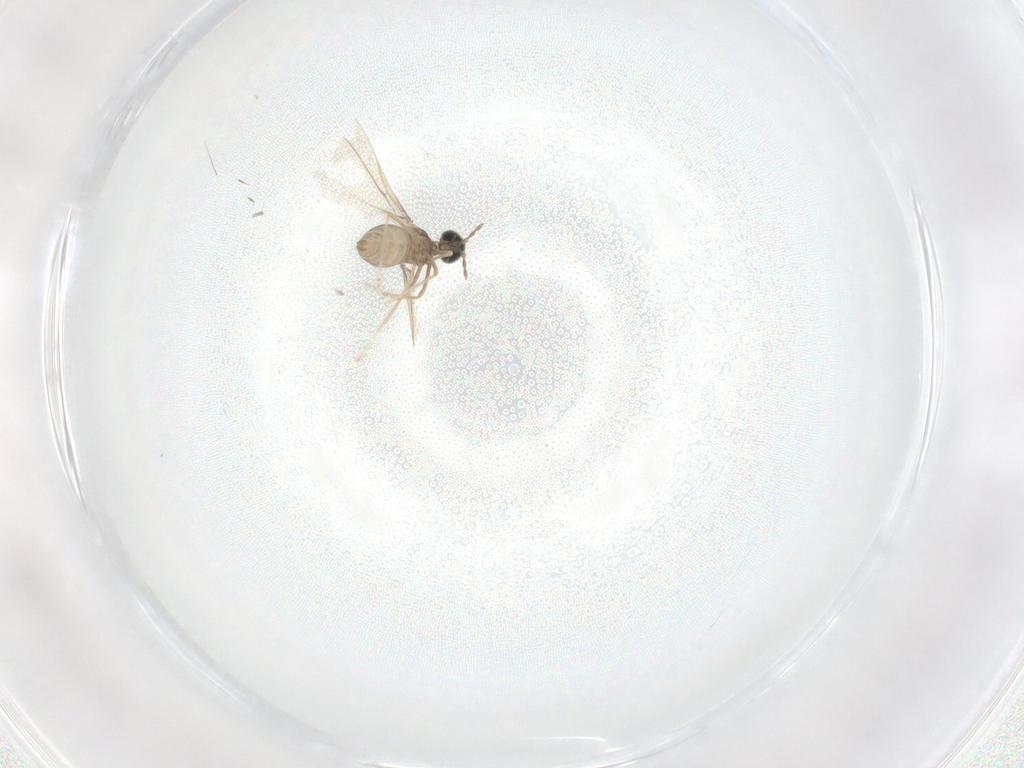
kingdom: Animalia
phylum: Arthropoda
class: Insecta
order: Diptera
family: Cecidomyiidae
